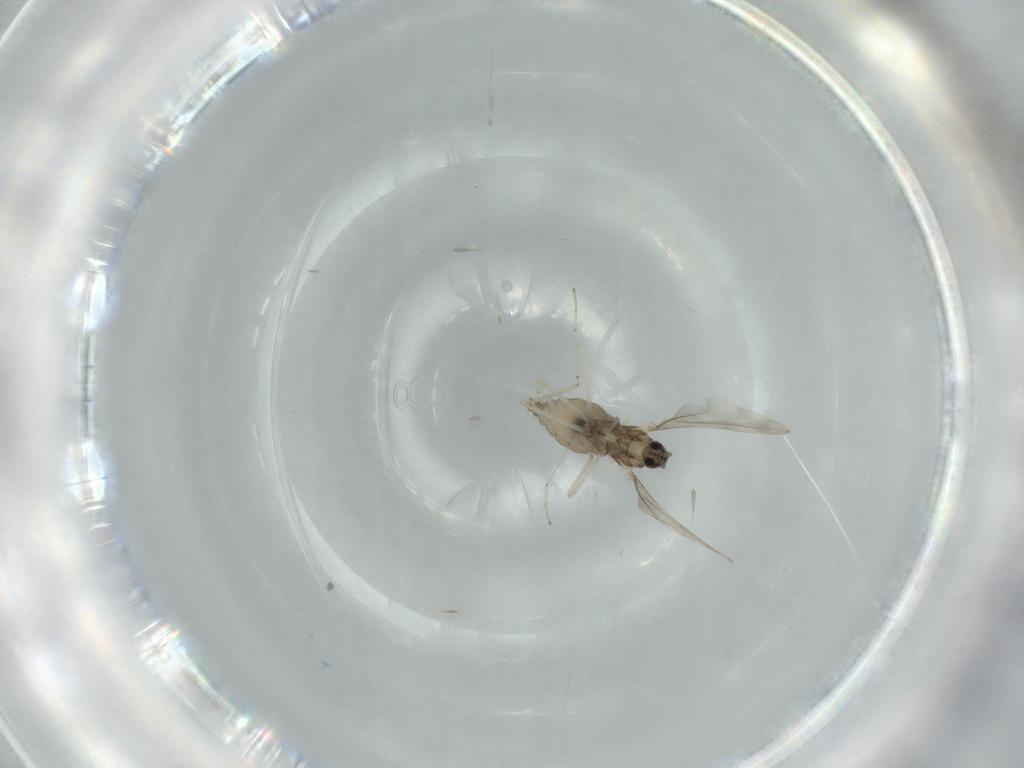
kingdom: Animalia
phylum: Arthropoda
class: Insecta
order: Diptera
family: Cecidomyiidae
